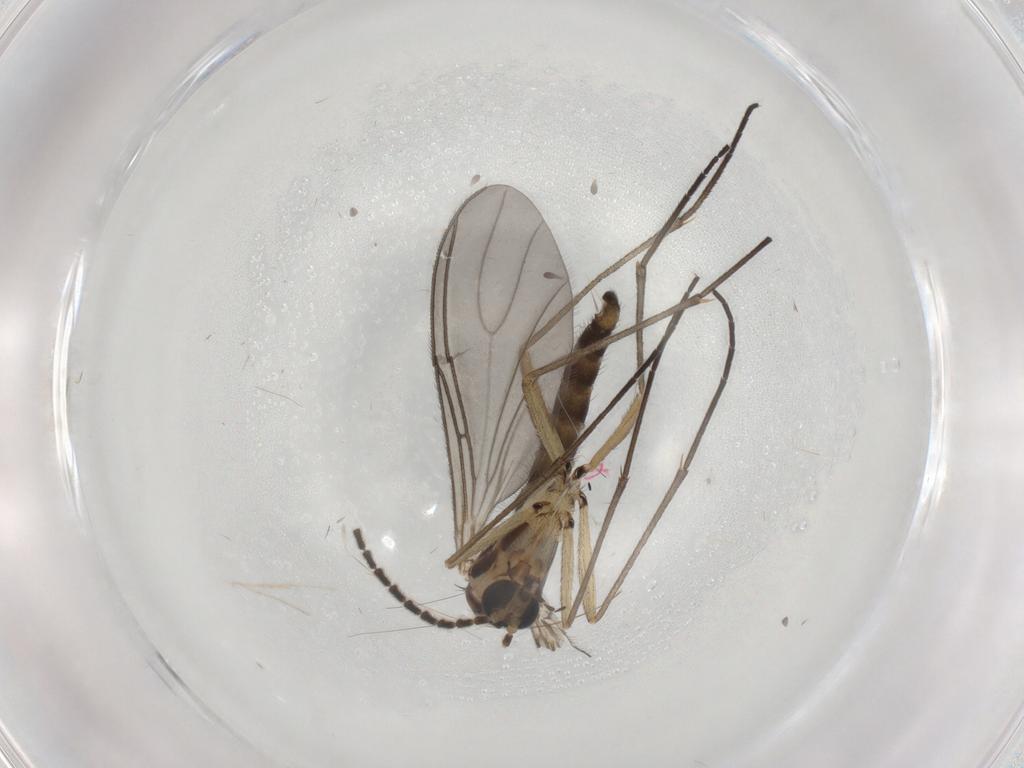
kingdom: Animalia
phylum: Arthropoda
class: Insecta
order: Diptera
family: Sciaridae
